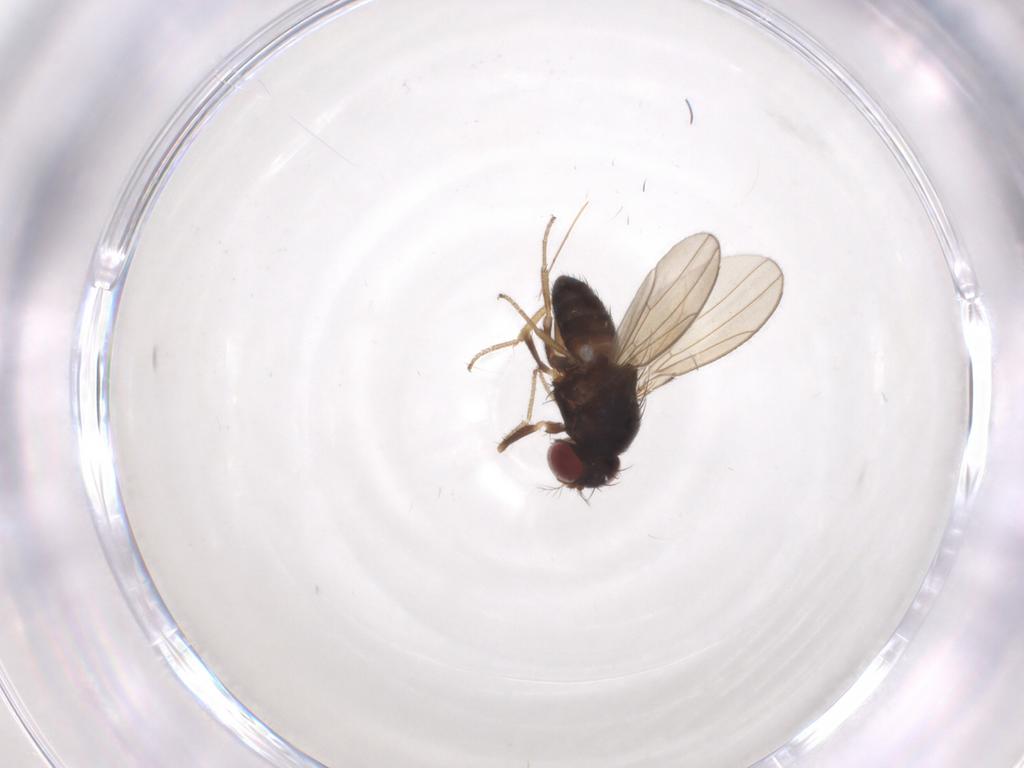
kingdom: Animalia
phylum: Arthropoda
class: Insecta
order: Diptera
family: Drosophilidae
